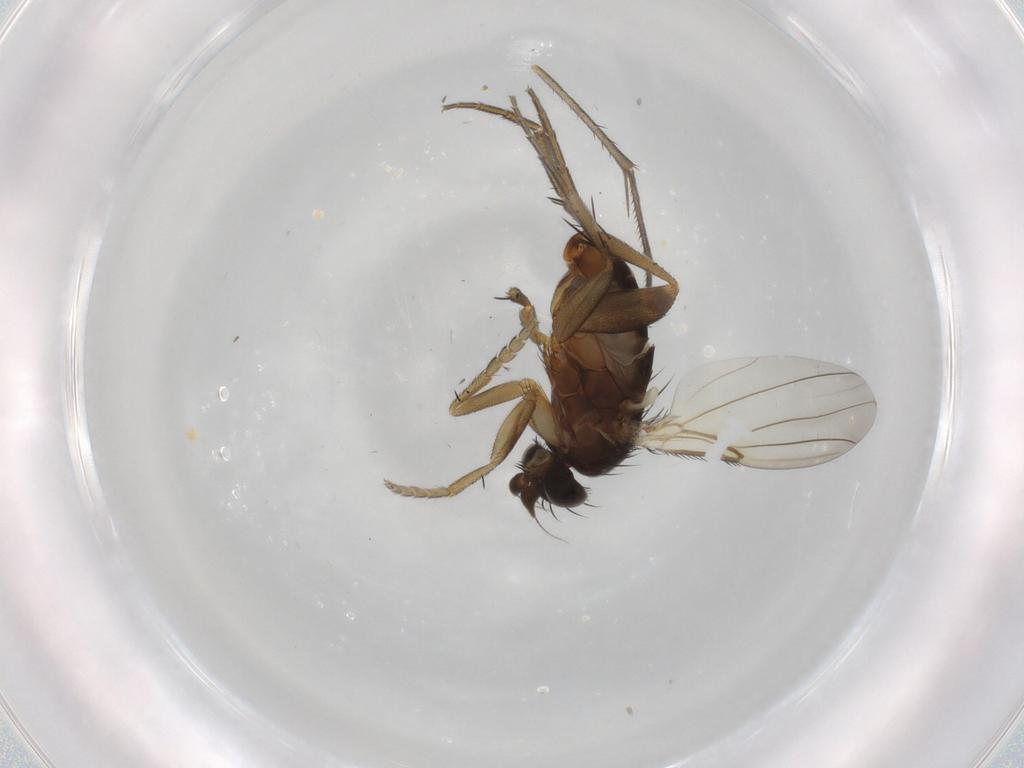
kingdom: Animalia
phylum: Arthropoda
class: Insecta
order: Diptera
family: Phoridae
